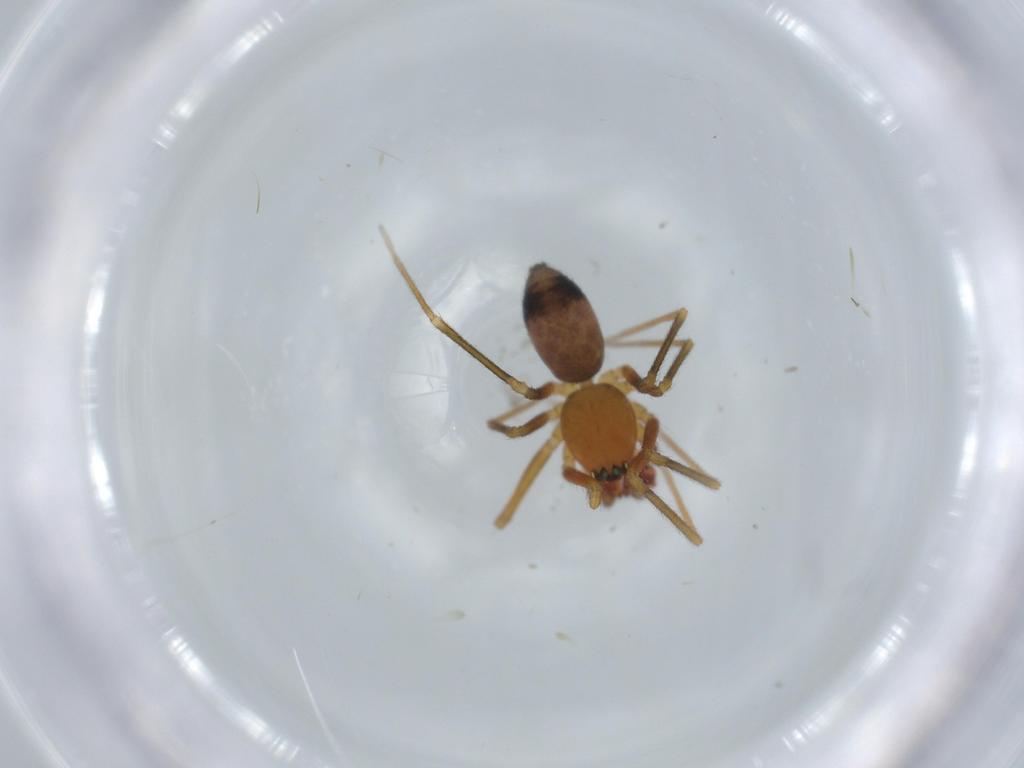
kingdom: Animalia
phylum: Arthropoda
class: Arachnida
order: Araneae
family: Linyphiidae
